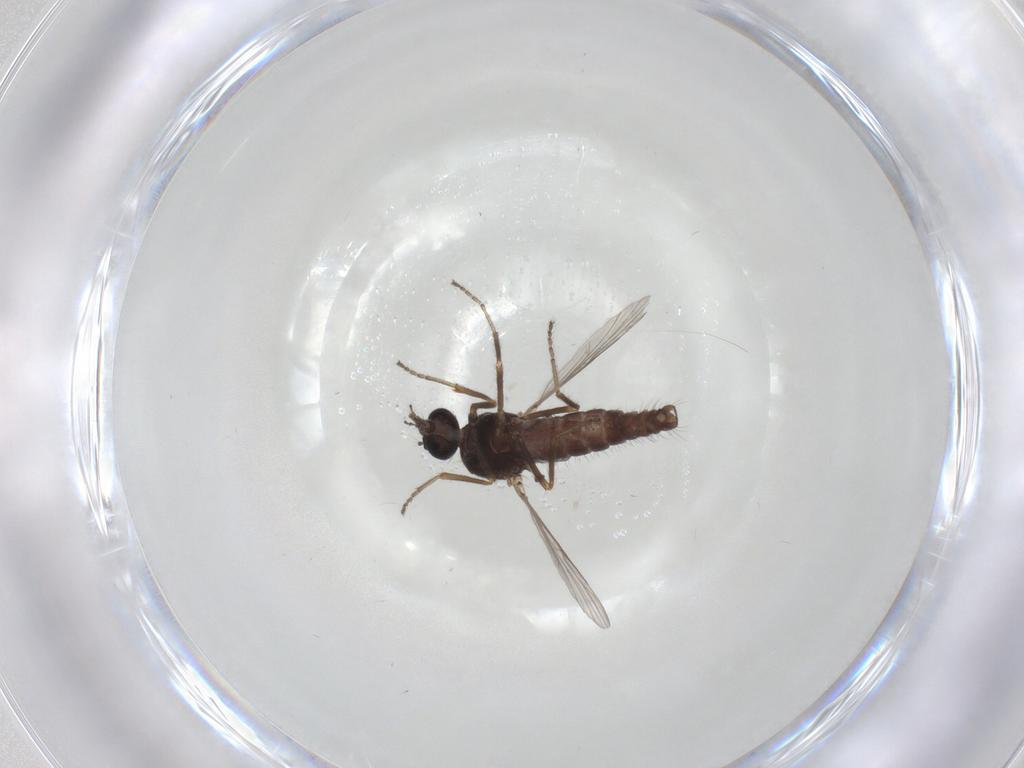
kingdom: Animalia
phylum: Arthropoda
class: Insecta
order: Diptera
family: Ceratopogonidae
